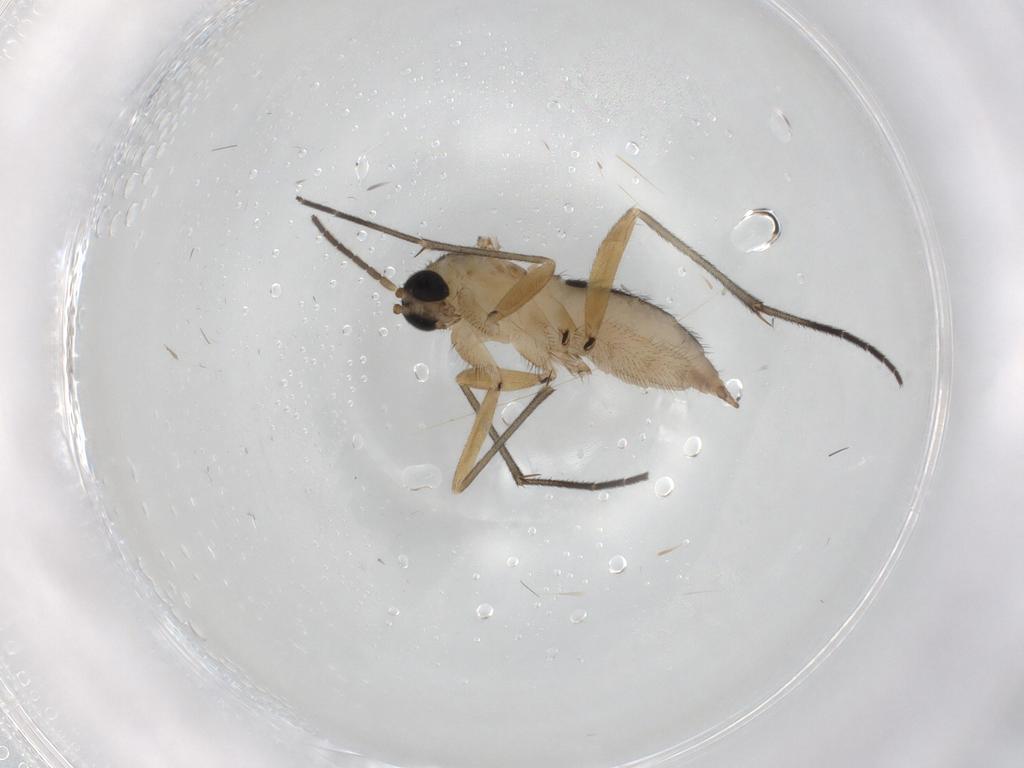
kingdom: Animalia
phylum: Arthropoda
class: Insecta
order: Diptera
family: Sciaridae
